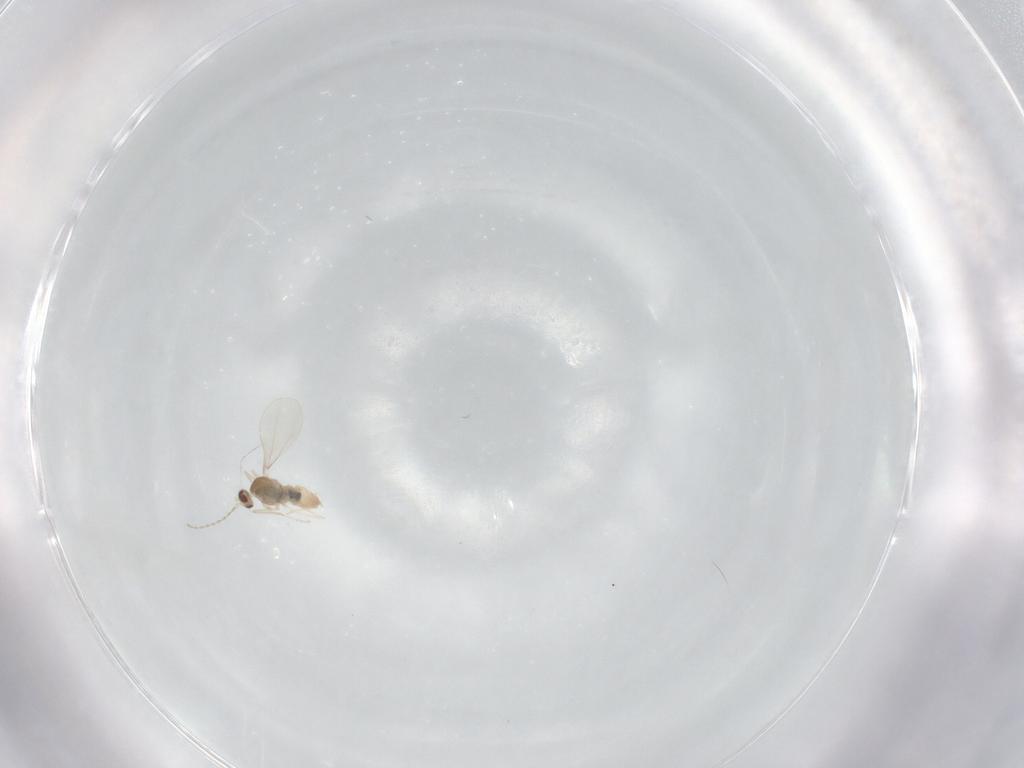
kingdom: Animalia
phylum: Arthropoda
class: Insecta
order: Diptera
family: Cecidomyiidae
